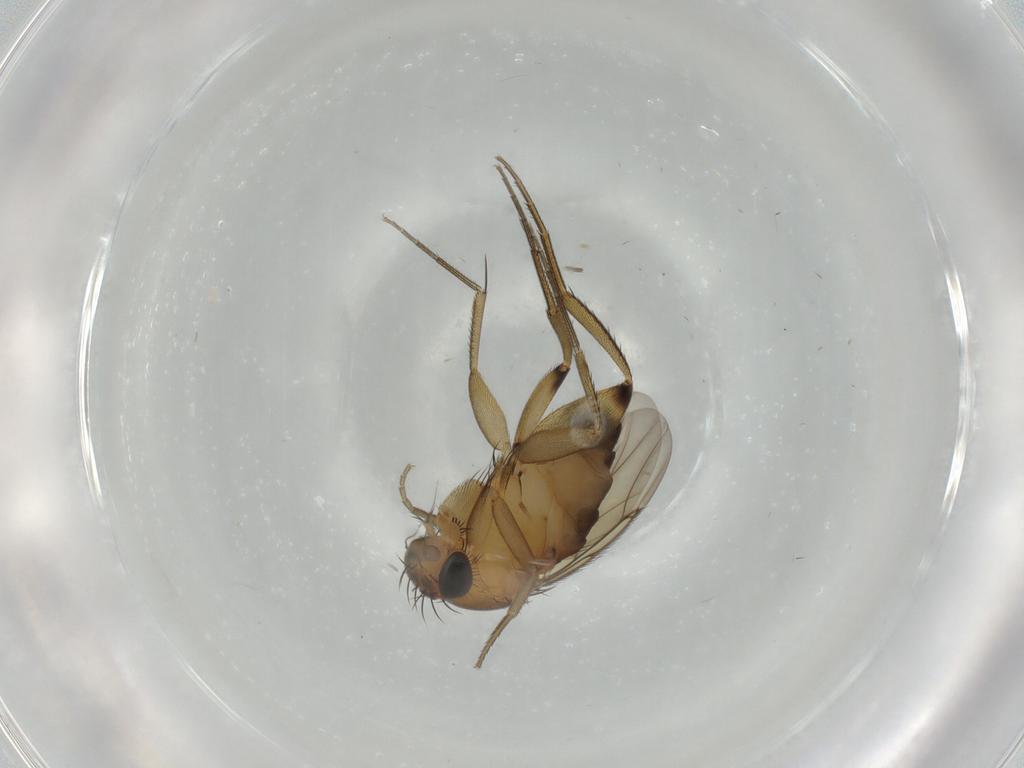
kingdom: Animalia
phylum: Arthropoda
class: Insecta
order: Diptera
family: Phoridae
